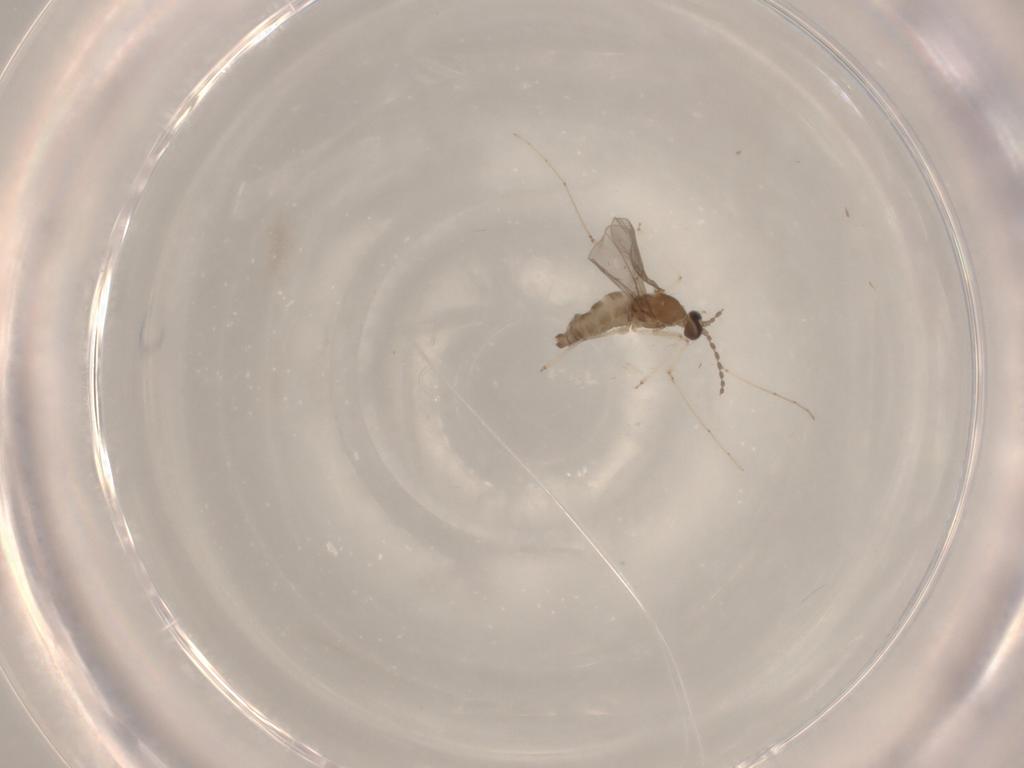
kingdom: Animalia
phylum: Arthropoda
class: Insecta
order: Diptera
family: Cecidomyiidae
